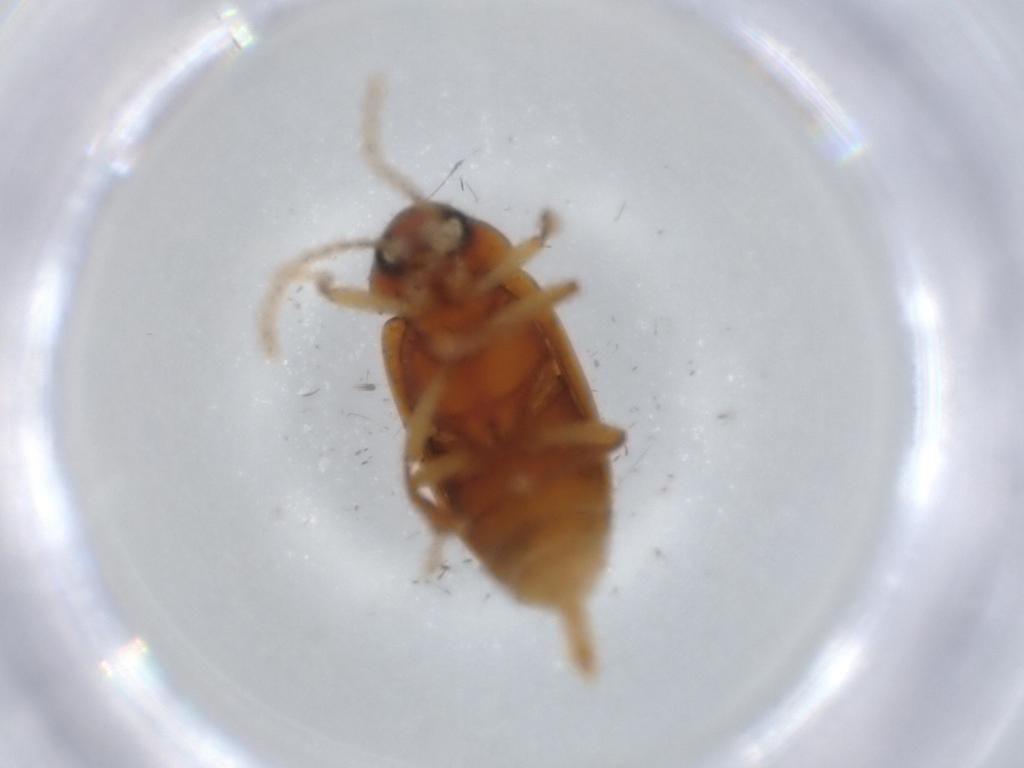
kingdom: Animalia
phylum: Arthropoda
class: Insecta
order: Coleoptera
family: Ptilodactylidae
